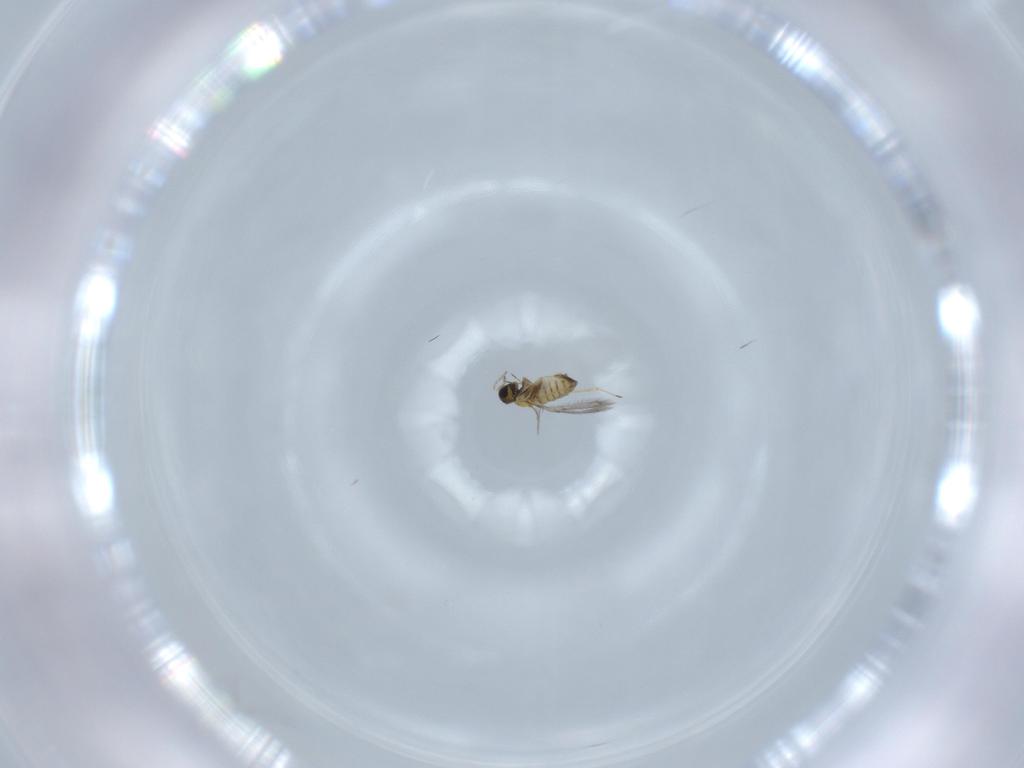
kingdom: Animalia
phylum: Arthropoda
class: Insecta
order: Hymenoptera
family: Trichogrammatidae
